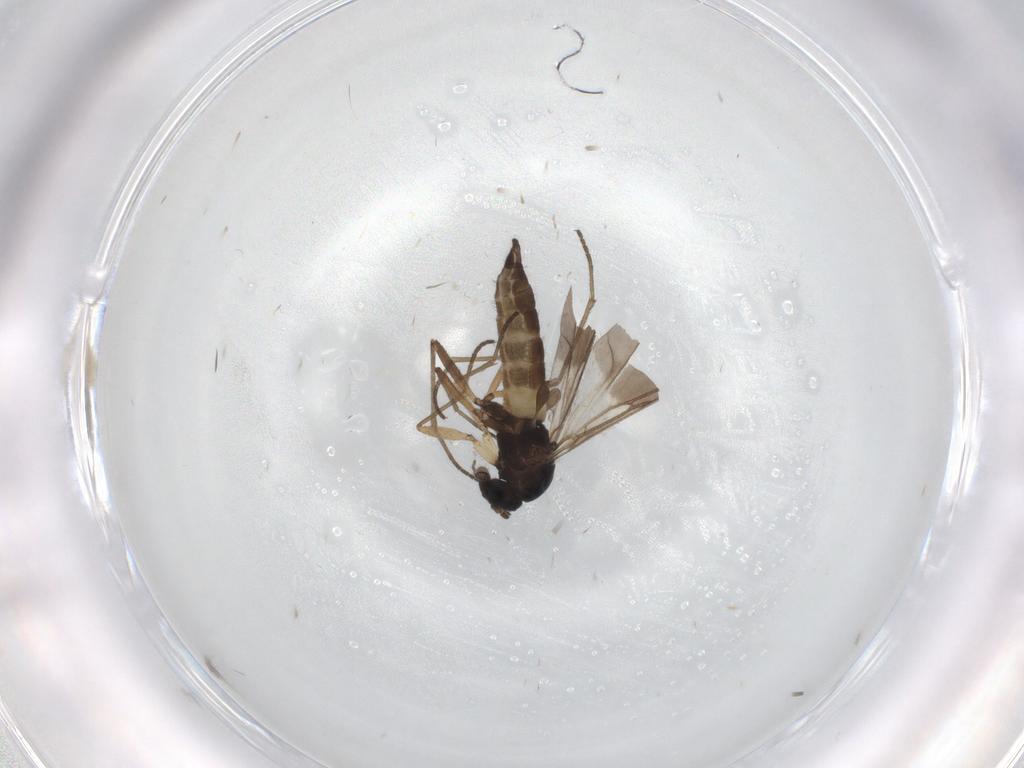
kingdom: Animalia
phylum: Arthropoda
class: Insecta
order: Diptera
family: Sciaridae
